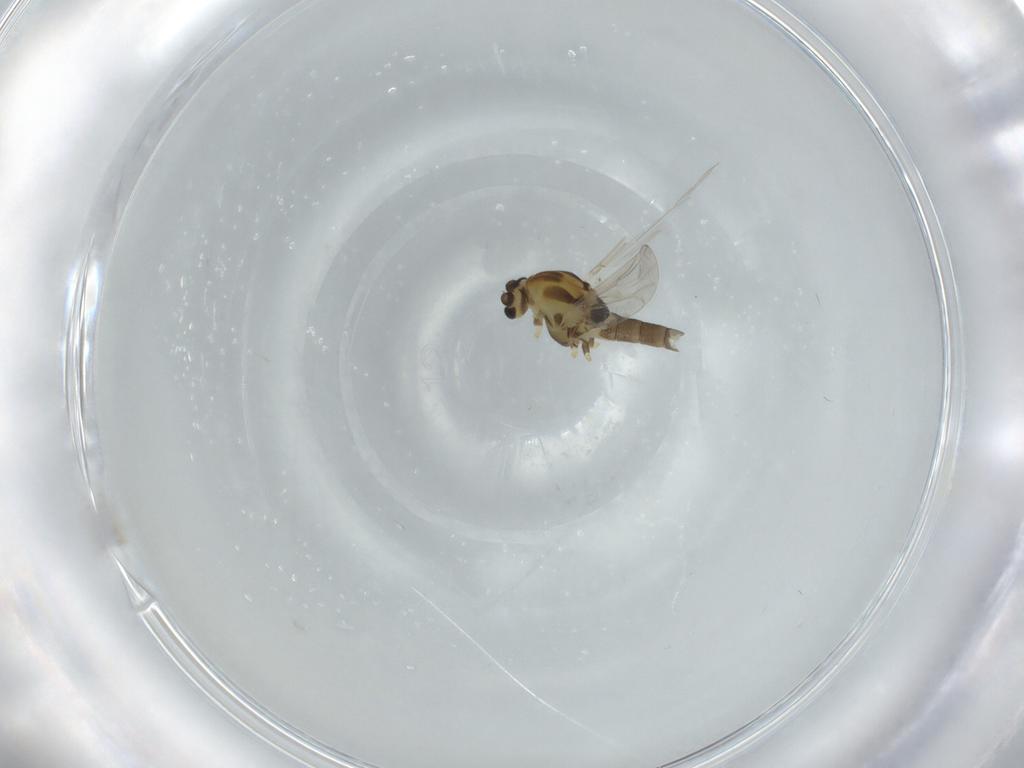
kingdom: Animalia
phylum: Arthropoda
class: Insecta
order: Diptera
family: Chironomidae
